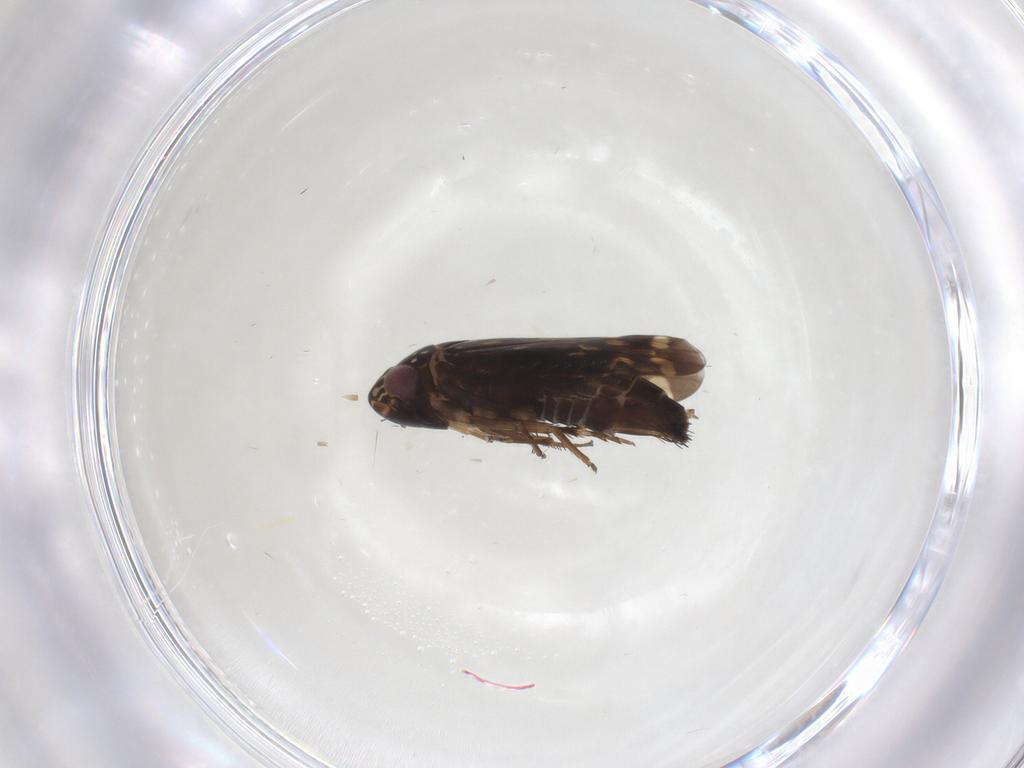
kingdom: Animalia
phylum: Arthropoda
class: Insecta
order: Hemiptera
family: Cicadellidae
